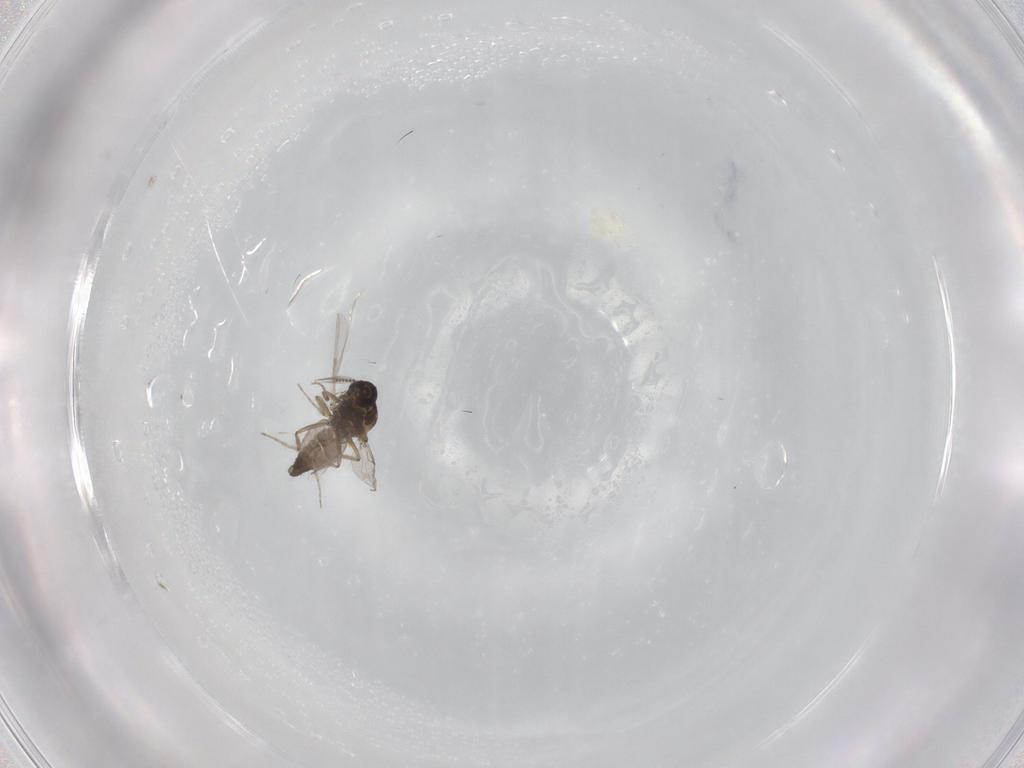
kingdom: Animalia
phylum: Arthropoda
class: Insecta
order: Diptera
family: Ceratopogonidae
